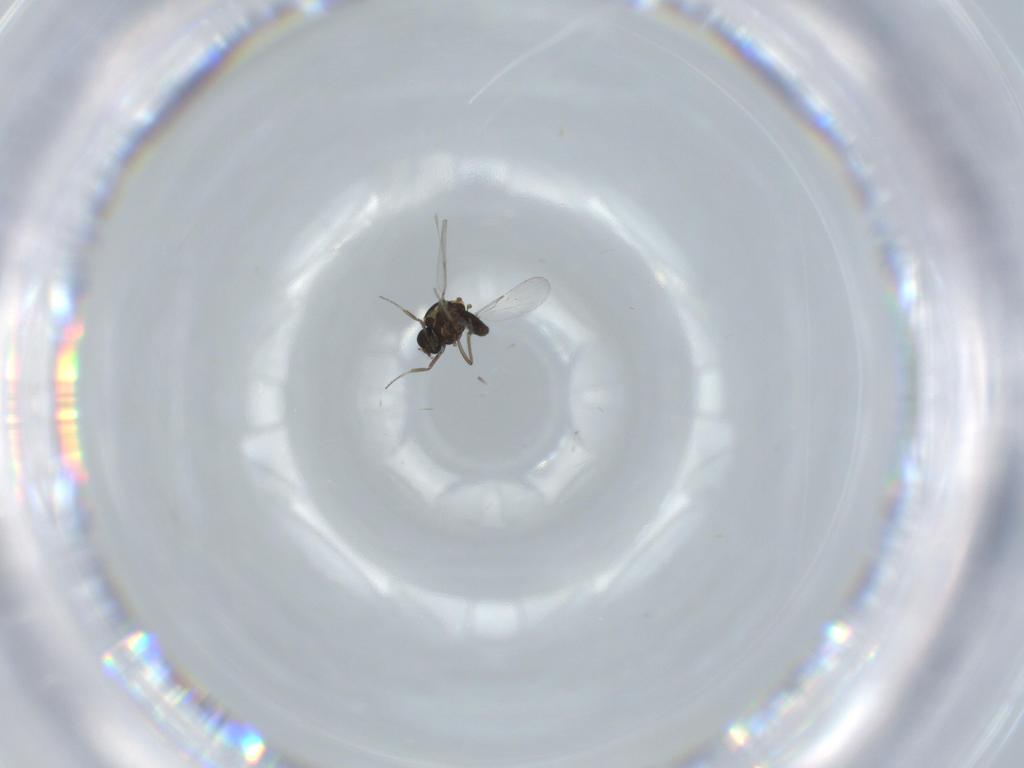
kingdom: Animalia
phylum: Arthropoda
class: Insecta
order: Diptera
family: Ceratopogonidae
